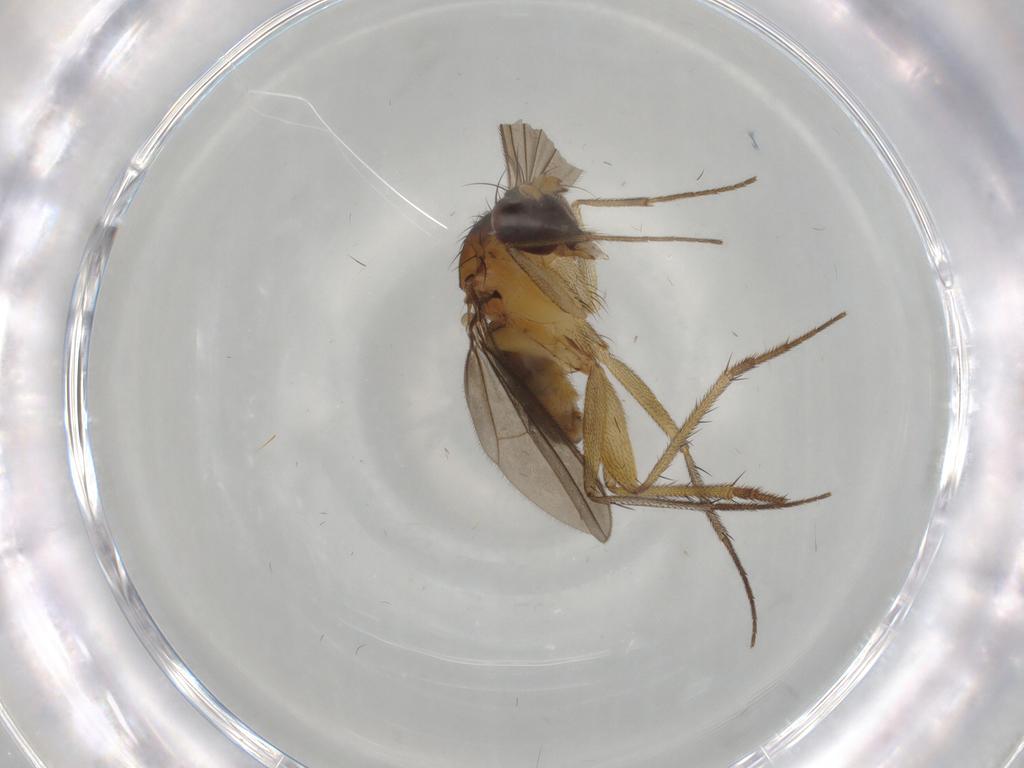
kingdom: Animalia
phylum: Arthropoda
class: Insecta
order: Diptera
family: Dolichopodidae
